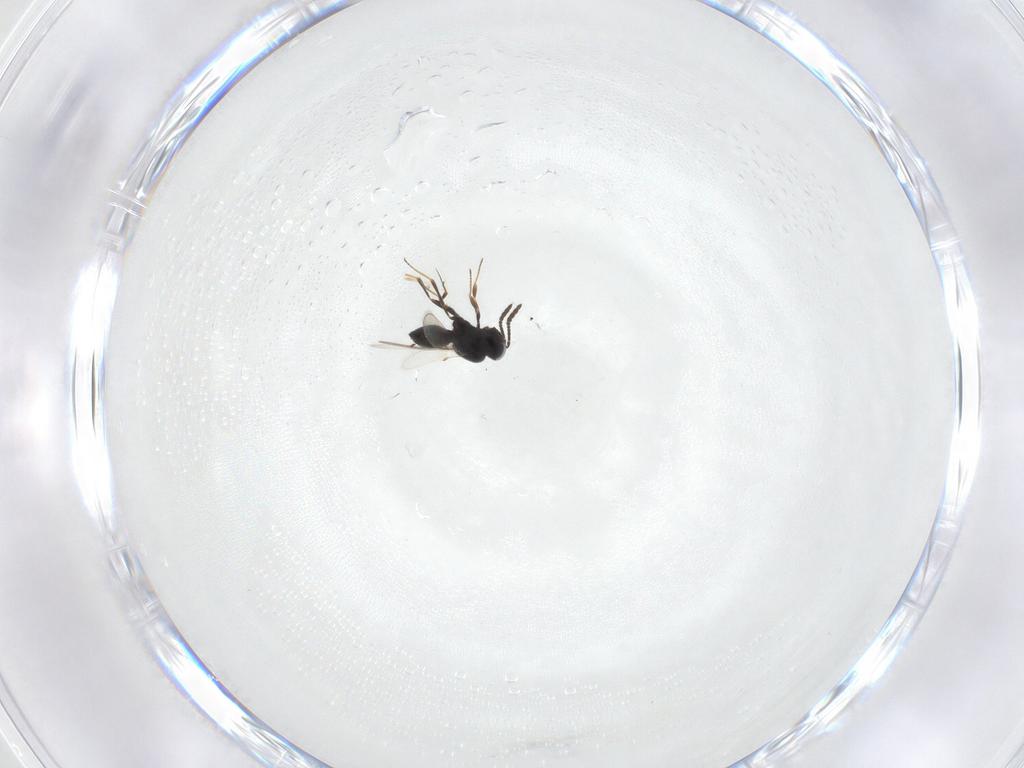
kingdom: Animalia
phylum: Arthropoda
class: Insecta
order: Hymenoptera
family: Scelionidae
